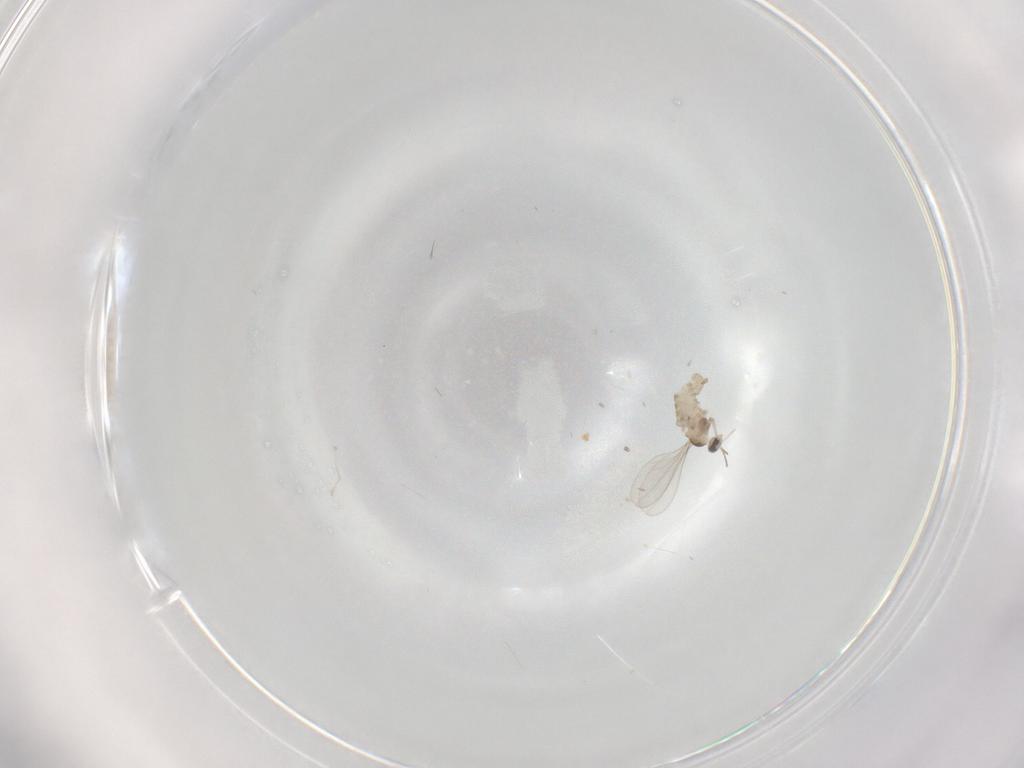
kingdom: Animalia
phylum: Arthropoda
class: Insecta
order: Diptera
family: Cecidomyiidae
